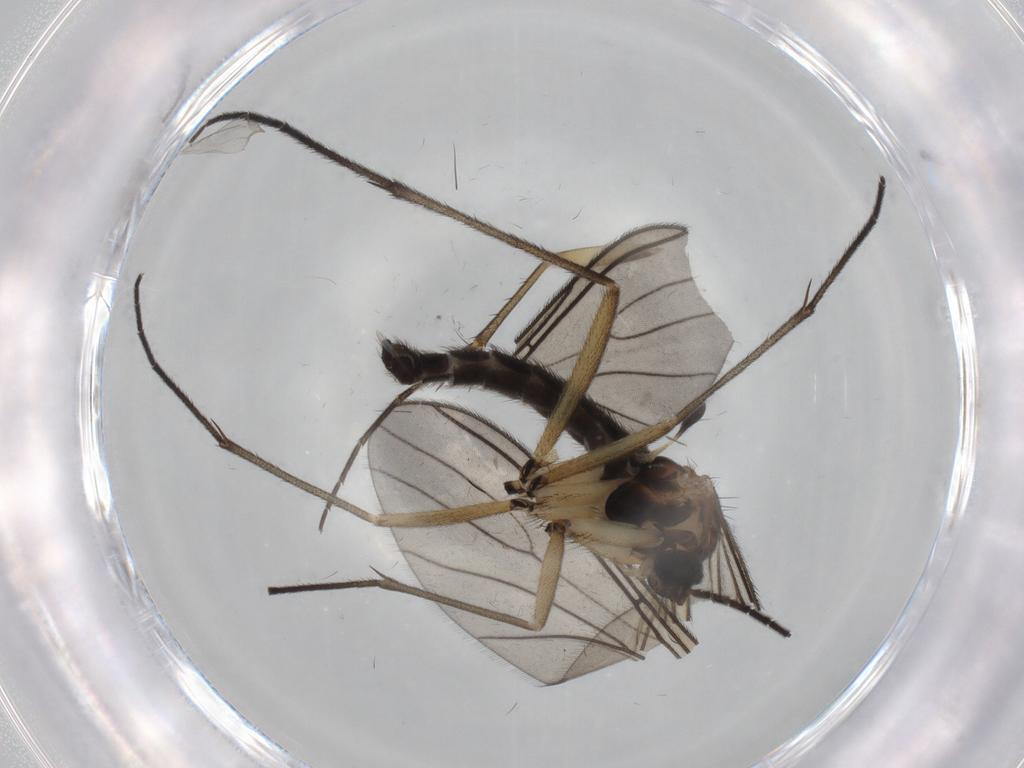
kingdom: Animalia
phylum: Arthropoda
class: Insecta
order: Diptera
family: Sciaridae
